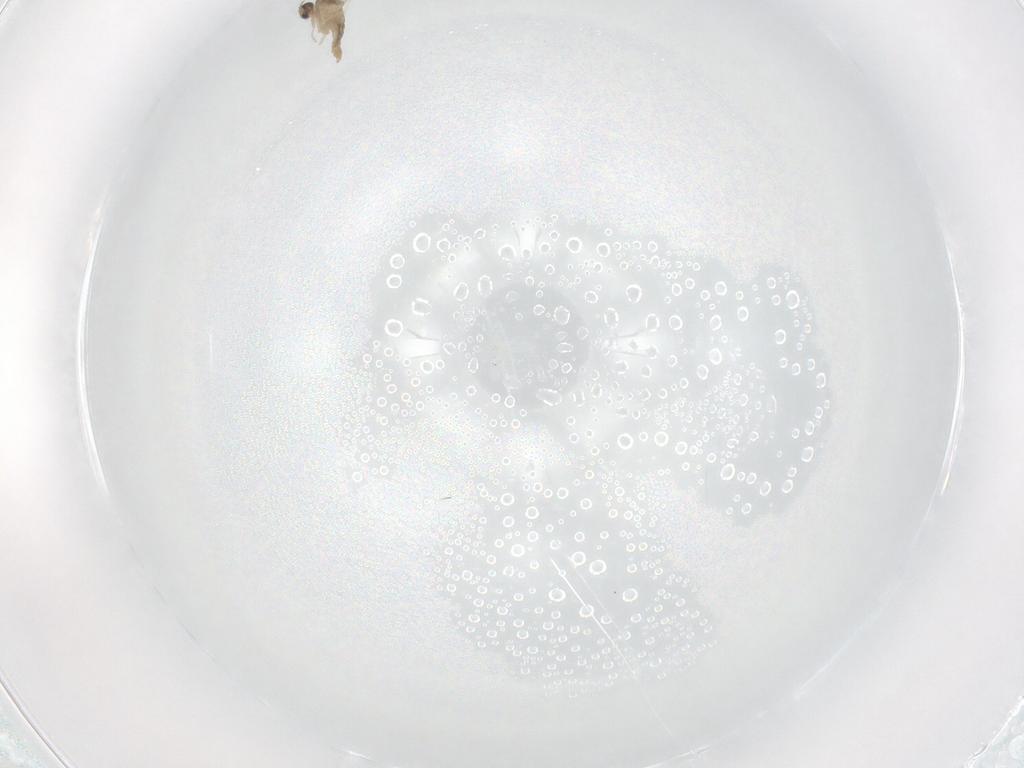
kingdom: Animalia
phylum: Arthropoda
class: Insecta
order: Diptera
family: Cecidomyiidae
